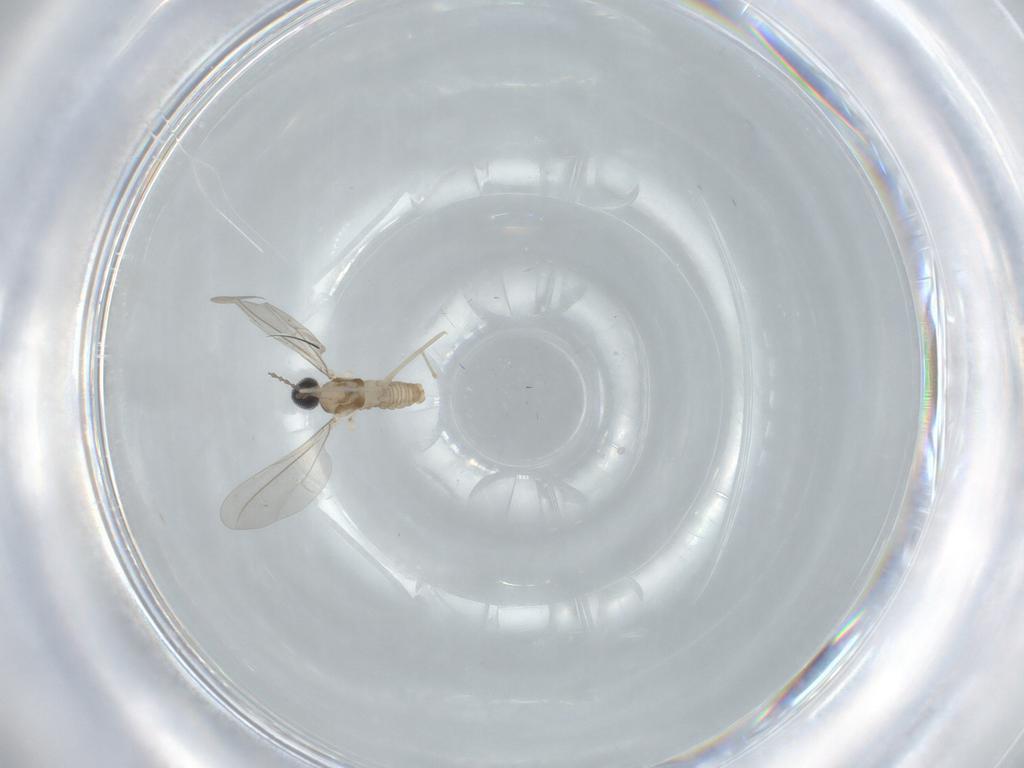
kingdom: Animalia
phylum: Arthropoda
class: Insecta
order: Diptera
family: Cecidomyiidae
